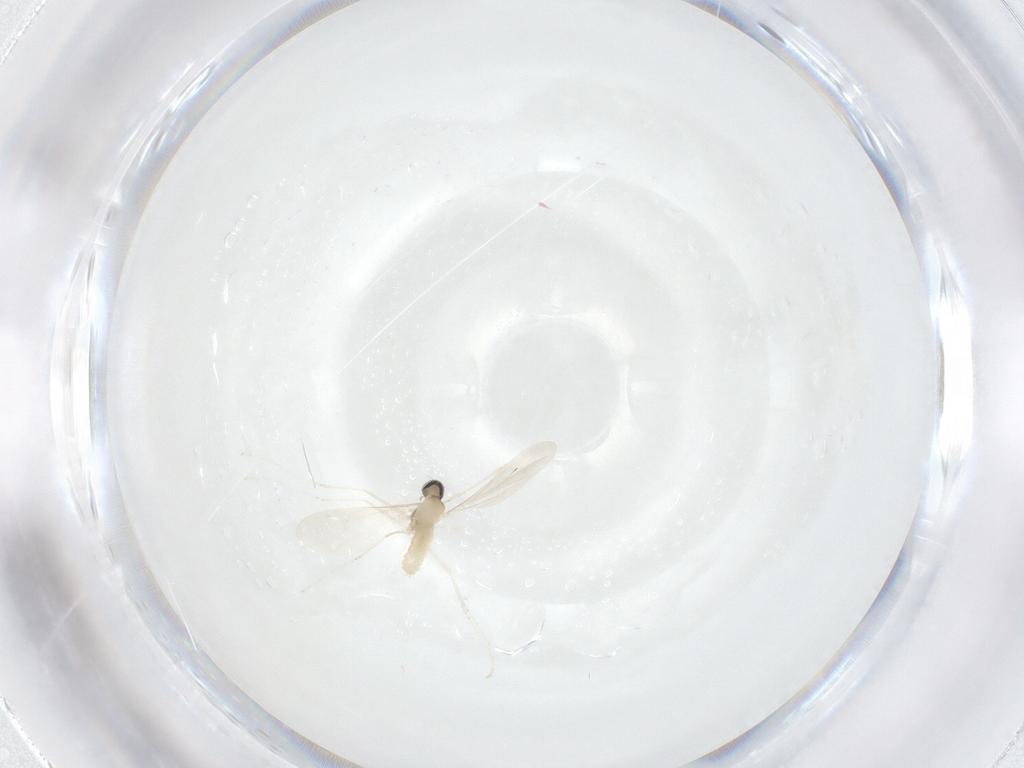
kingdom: Animalia
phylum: Arthropoda
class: Insecta
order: Diptera
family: Cecidomyiidae
